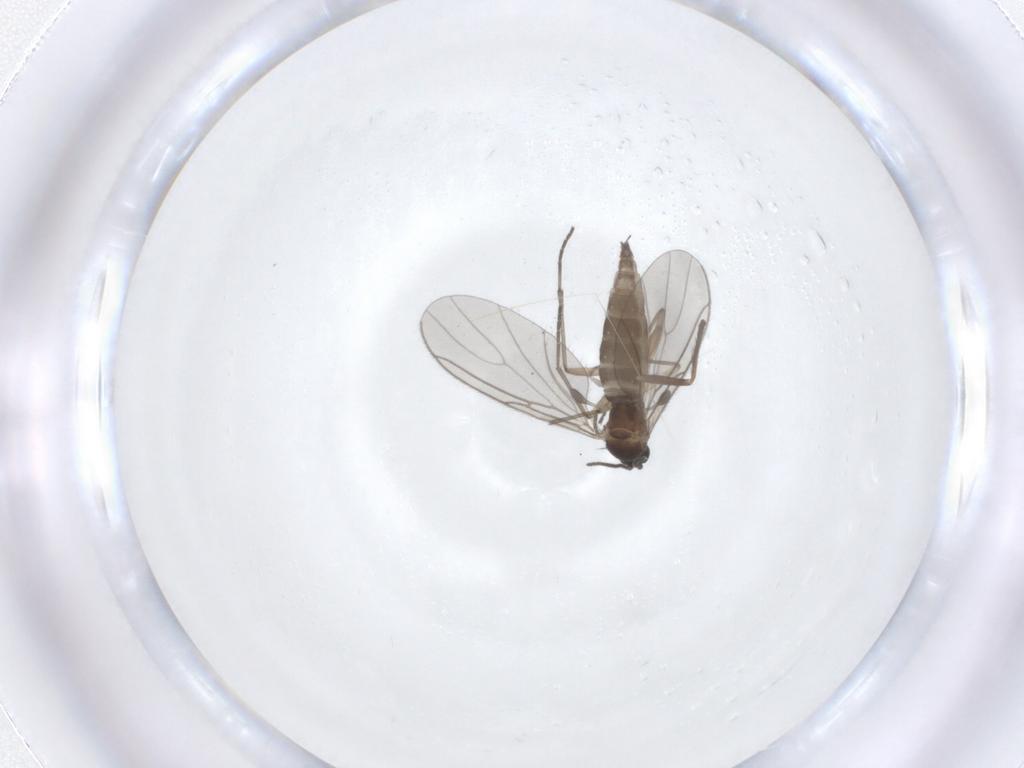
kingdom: Animalia
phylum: Arthropoda
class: Insecta
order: Diptera
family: Sciaridae
